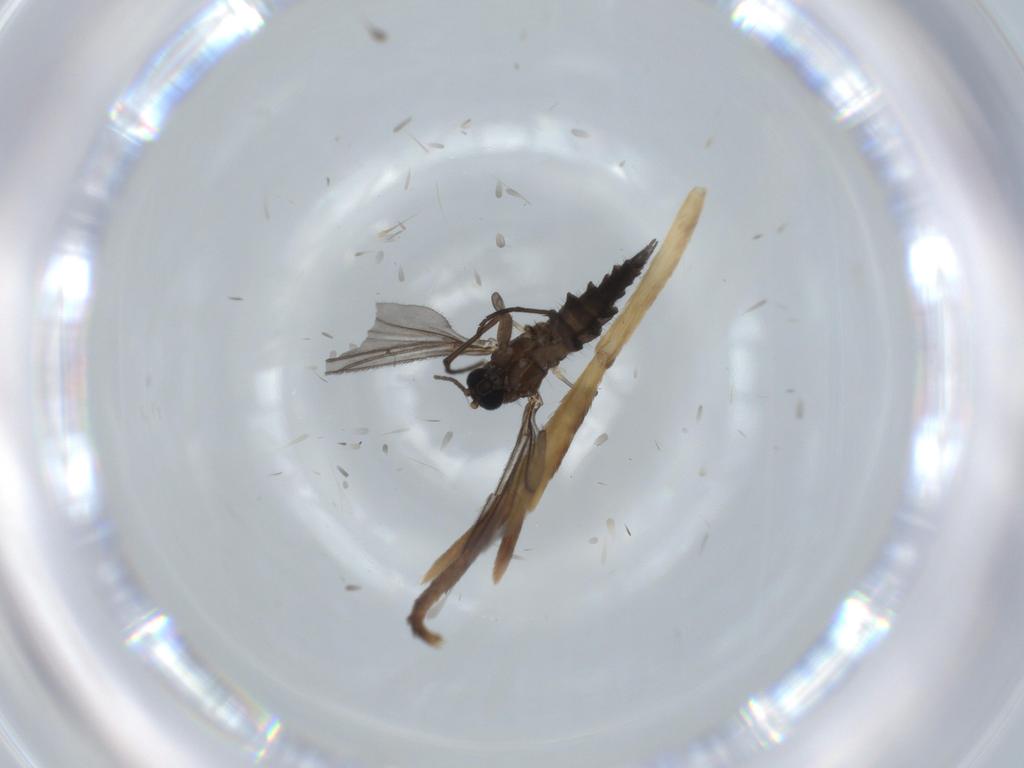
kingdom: Animalia
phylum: Arthropoda
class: Insecta
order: Diptera
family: Sciaridae
